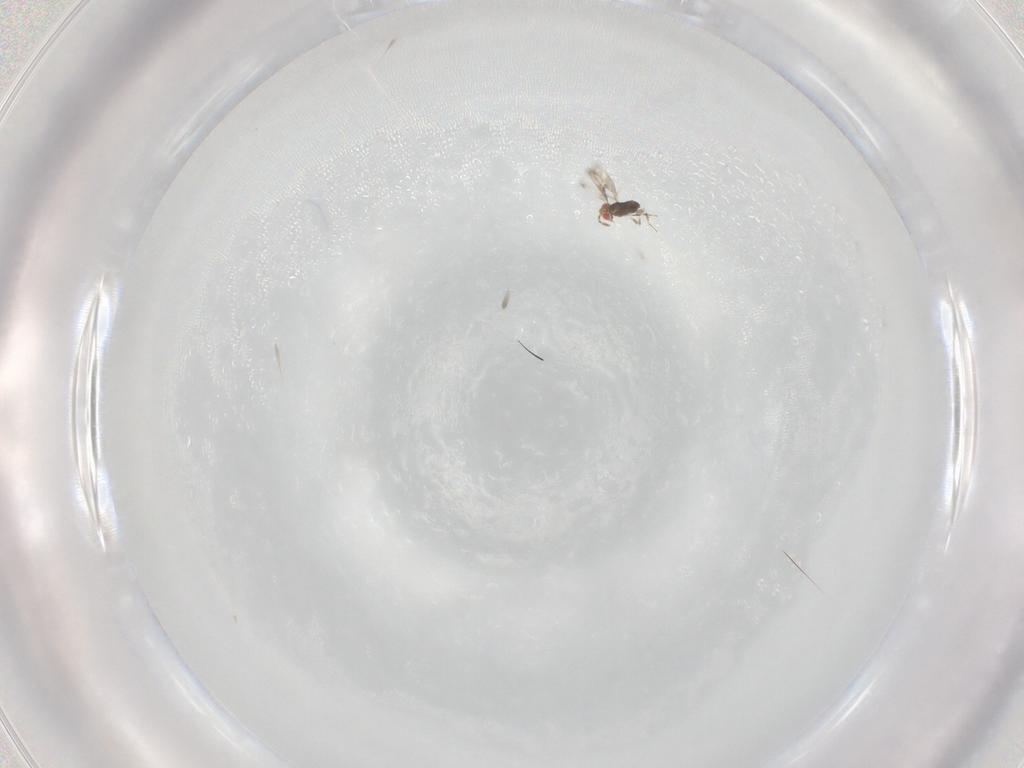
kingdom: Animalia
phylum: Arthropoda
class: Insecta
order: Hymenoptera
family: Azotidae
